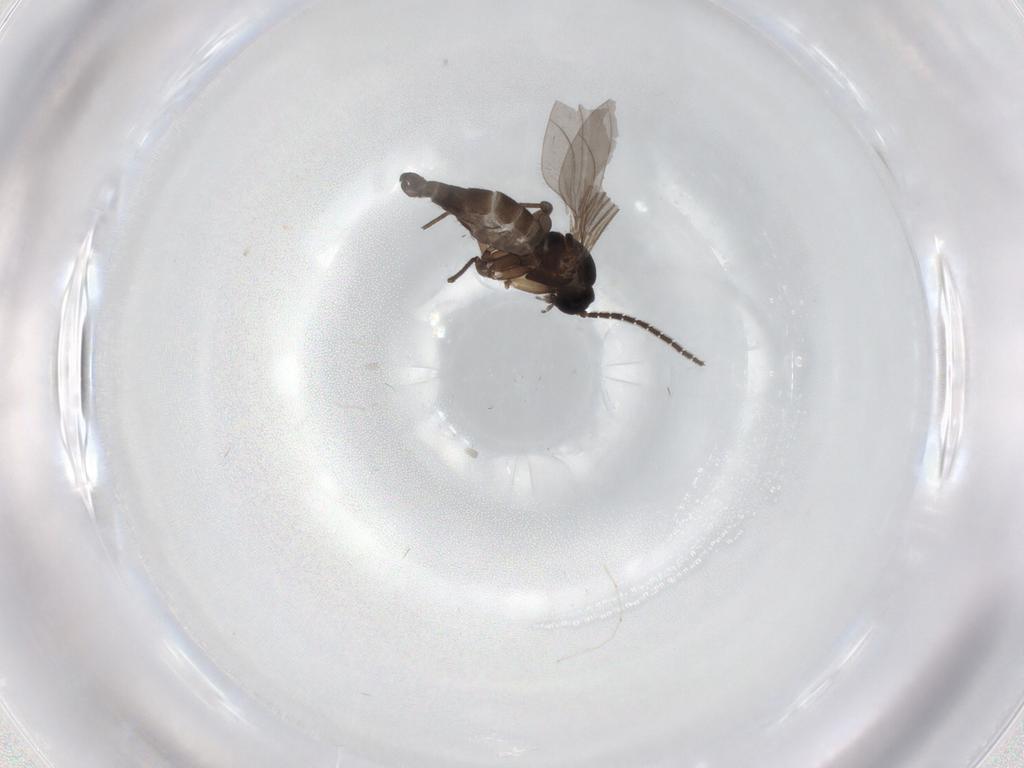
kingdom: Animalia
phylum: Arthropoda
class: Insecta
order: Diptera
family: Sciaridae
